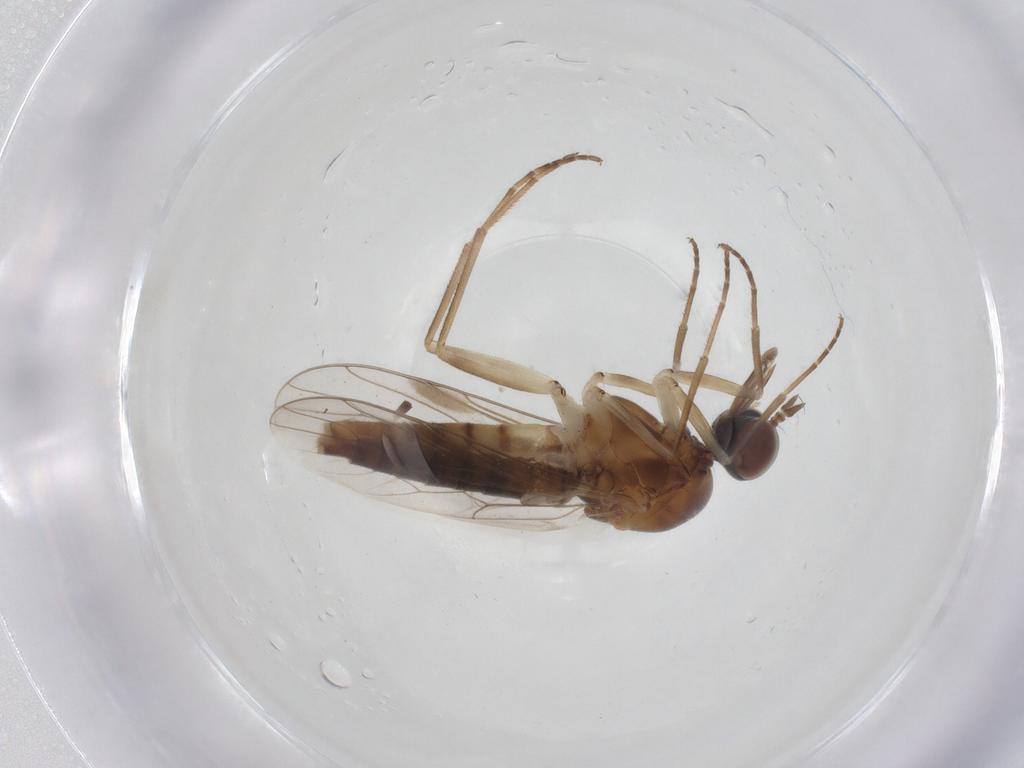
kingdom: Animalia
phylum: Arthropoda
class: Insecta
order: Diptera
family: Scenopinidae
